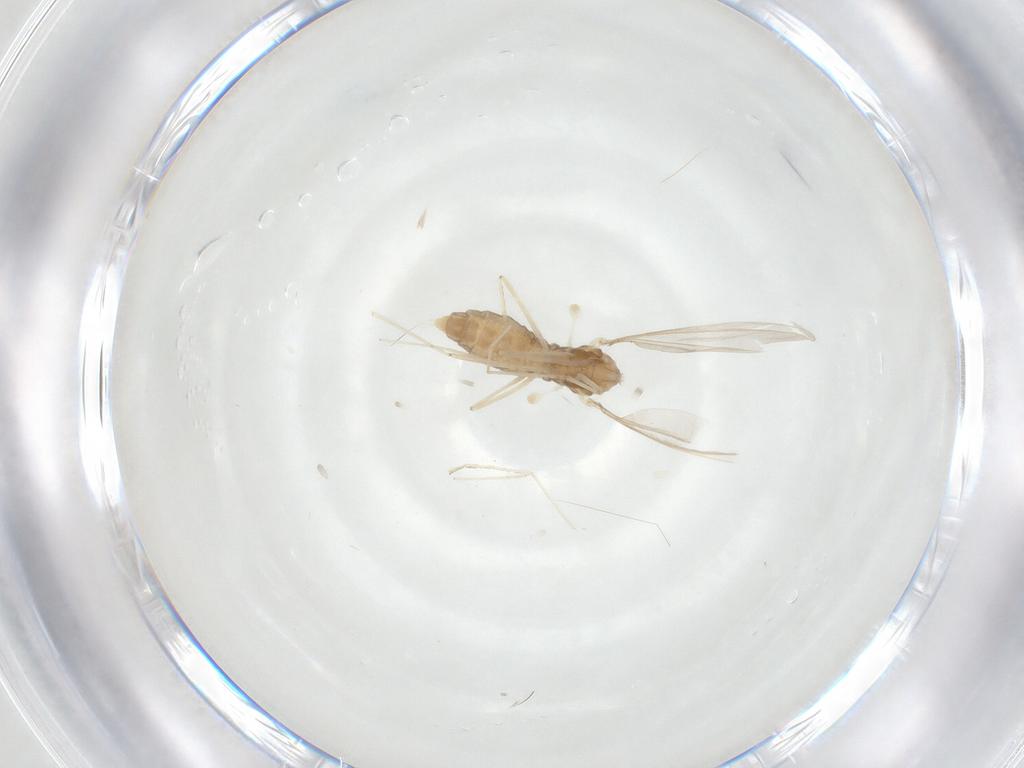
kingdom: Animalia
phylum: Arthropoda
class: Insecta
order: Diptera
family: Cecidomyiidae
